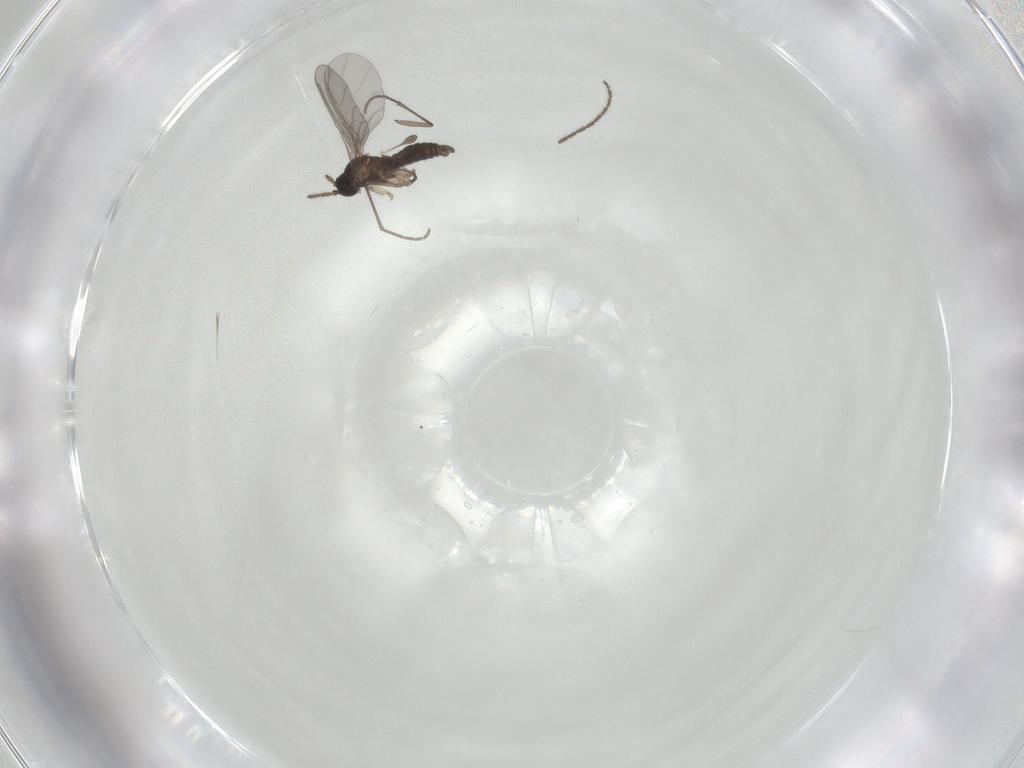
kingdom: Animalia
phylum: Arthropoda
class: Insecta
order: Diptera
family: Sciaridae
